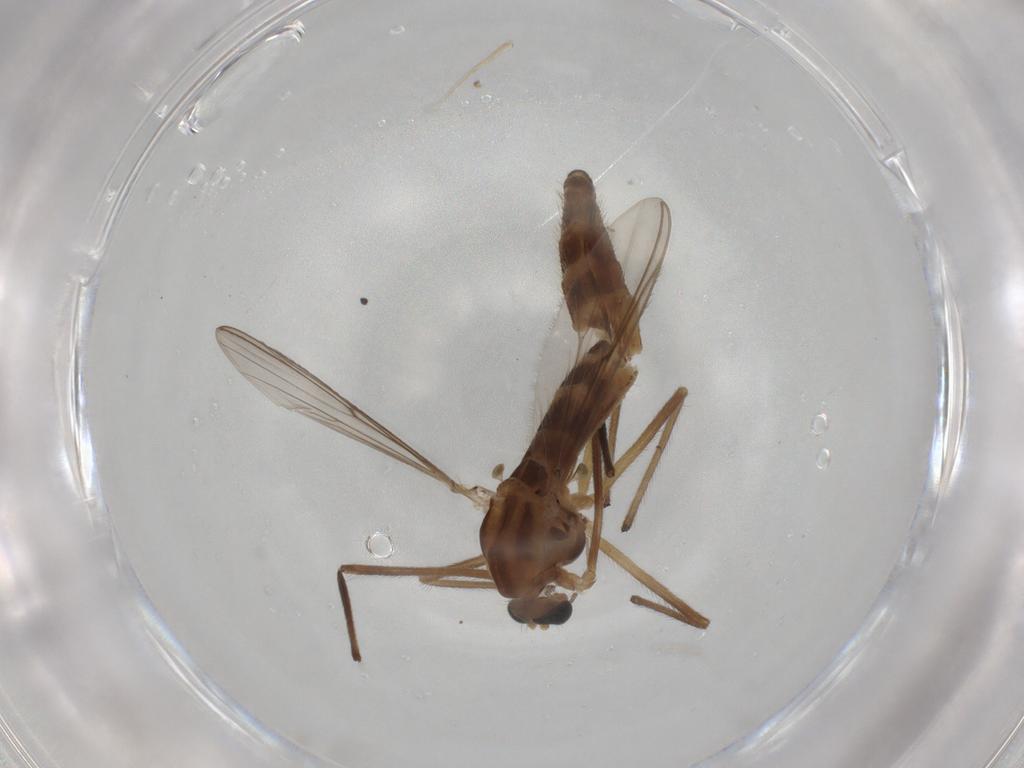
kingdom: Animalia
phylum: Arthropoda
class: Insecta
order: Diptera
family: Chironomidae
